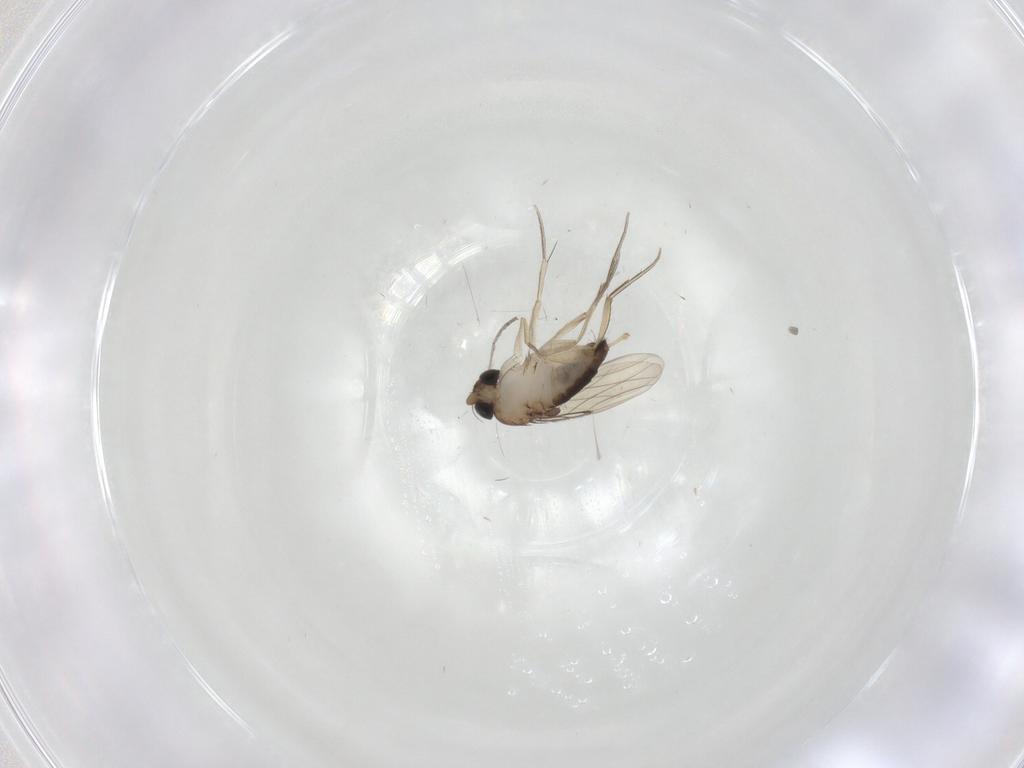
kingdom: Animalia
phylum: Arthropoda
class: Insecta
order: Diptera
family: Phoridae
